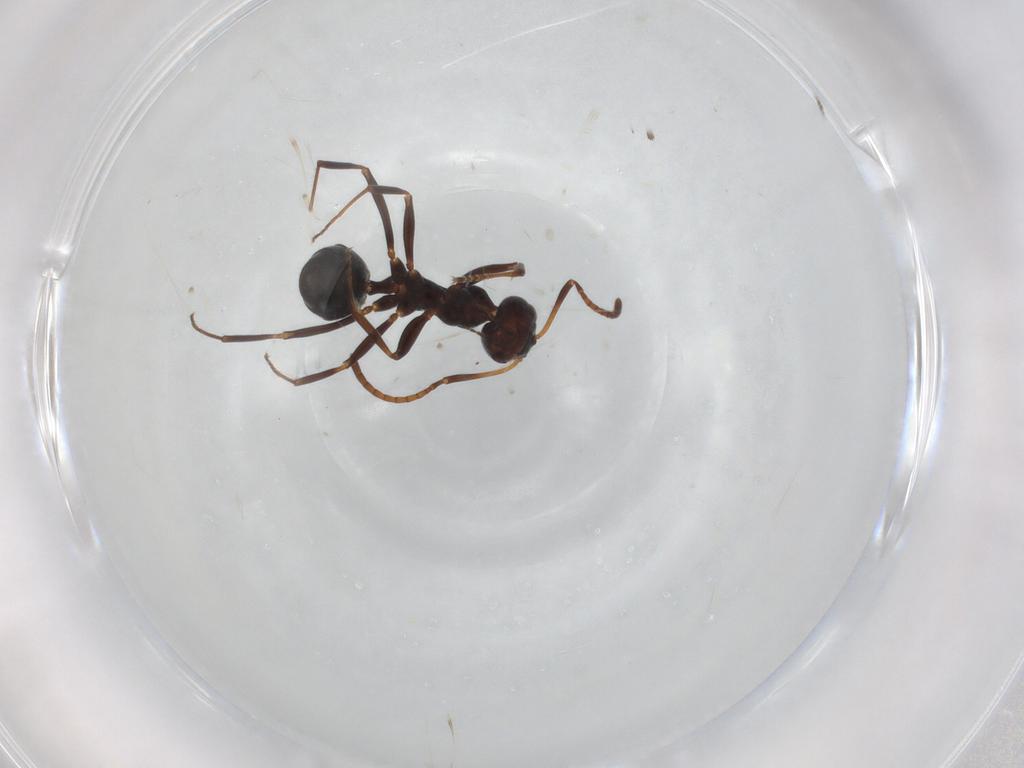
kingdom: Animalia
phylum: Arthropoda
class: Insecta
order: Hymenoptera
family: Formicidae
